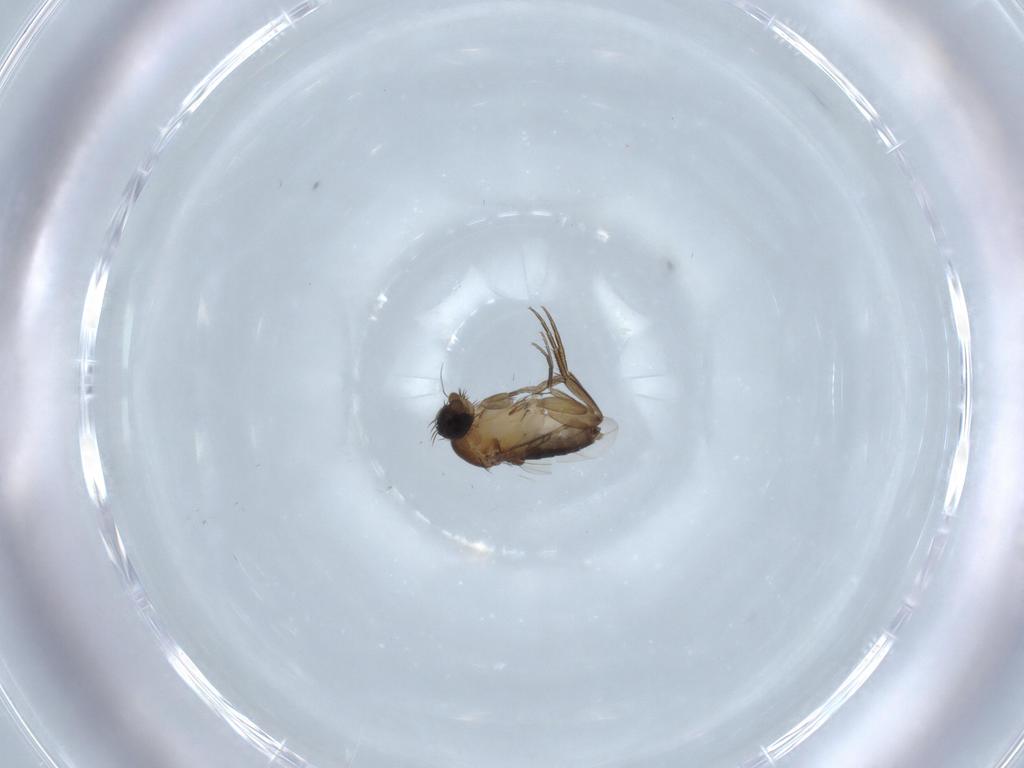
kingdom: Animalia
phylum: Arthropoda
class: Insecta
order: Diptera
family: Phoridae
